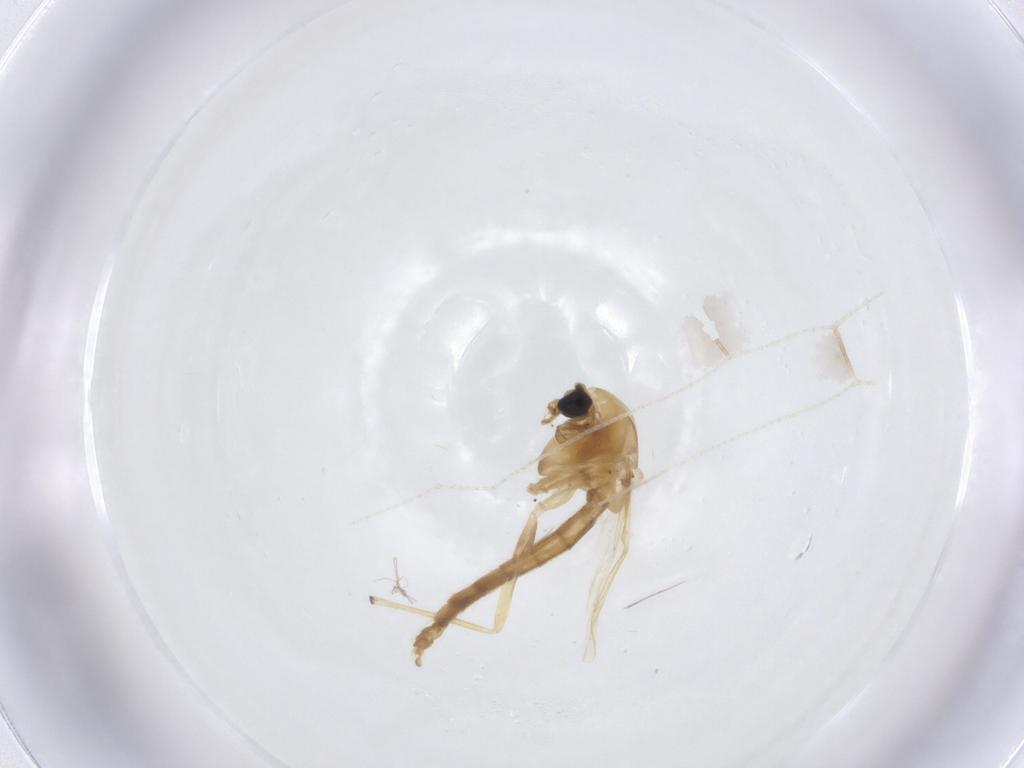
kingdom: Animalia
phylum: Arthropoda
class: Insecta
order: Diptera
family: Chironomidae
